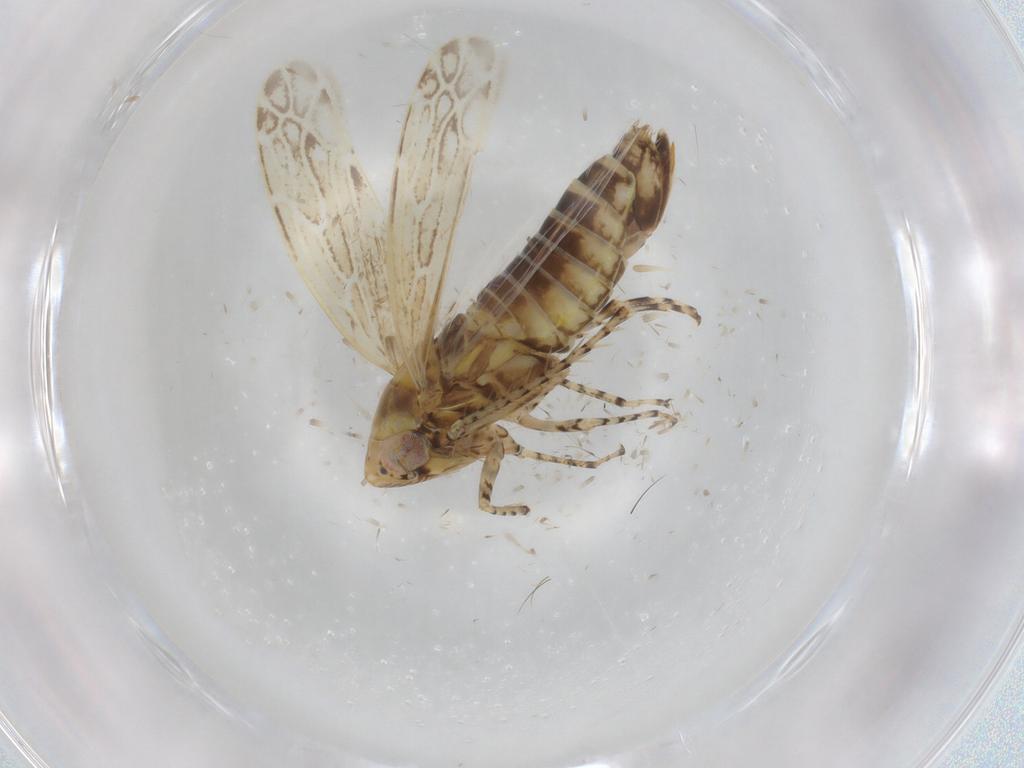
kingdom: Animalia
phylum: Arthropoda
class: Insecta
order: Hemiptera
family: Cicadellidae
